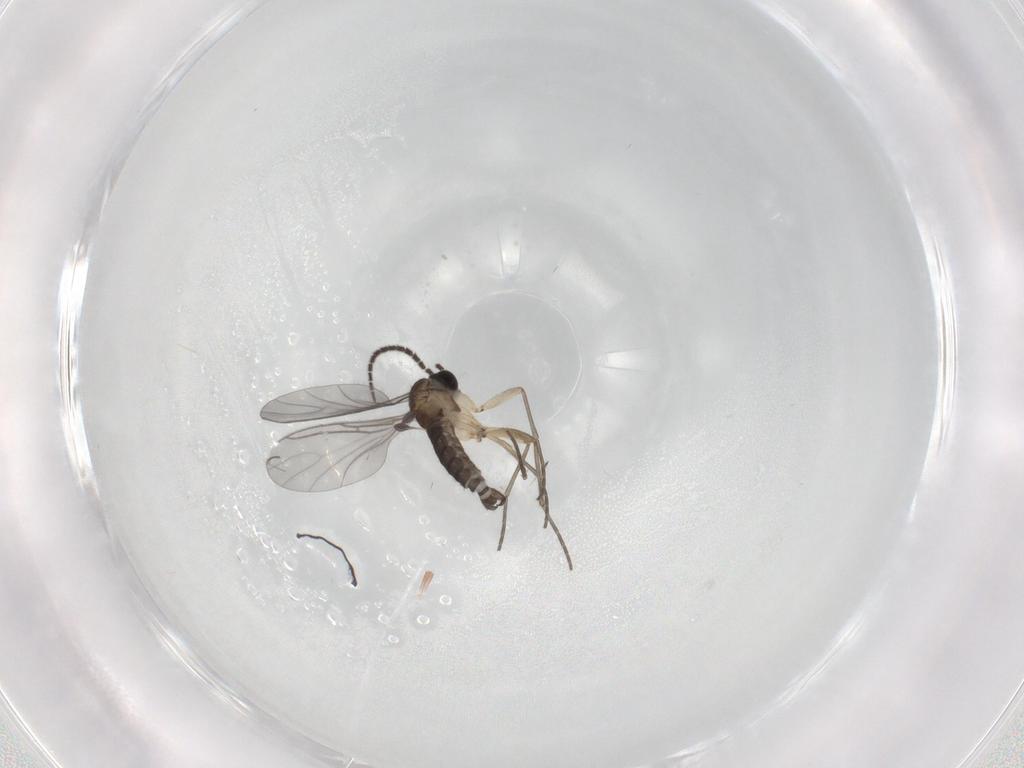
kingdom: Animalia
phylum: Arthropoda
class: Insecta
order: Diptera
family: Sciaridae
